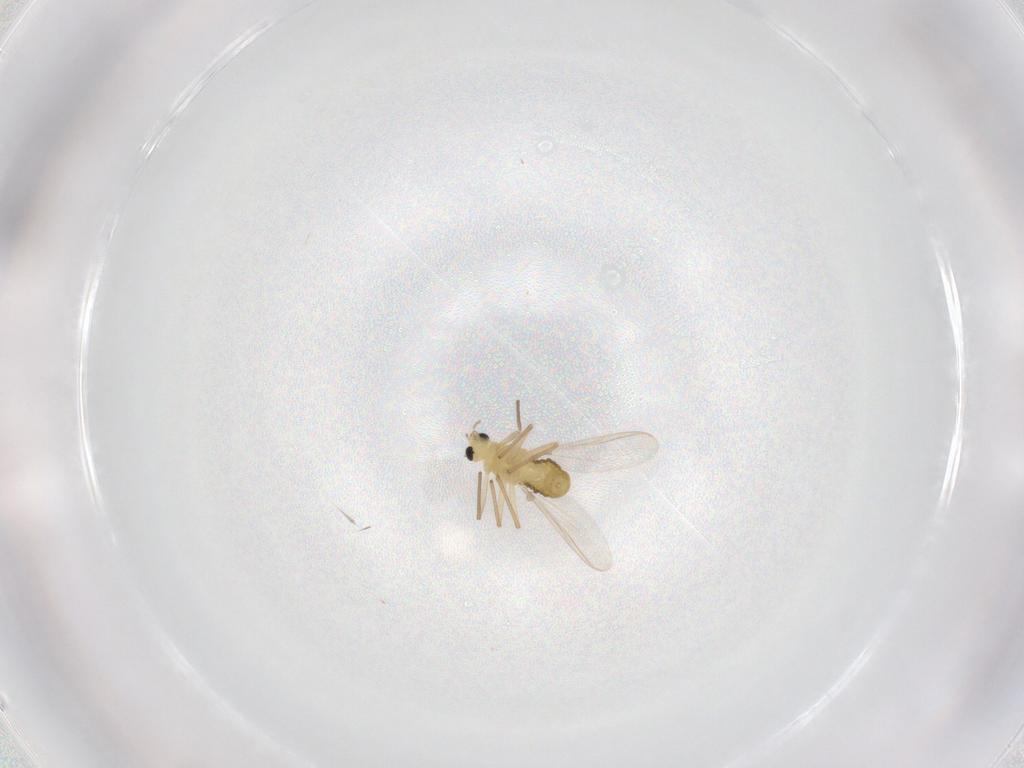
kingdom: Animalia
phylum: Arthropoda
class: Insecta
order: Diptera
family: Chironomidae
